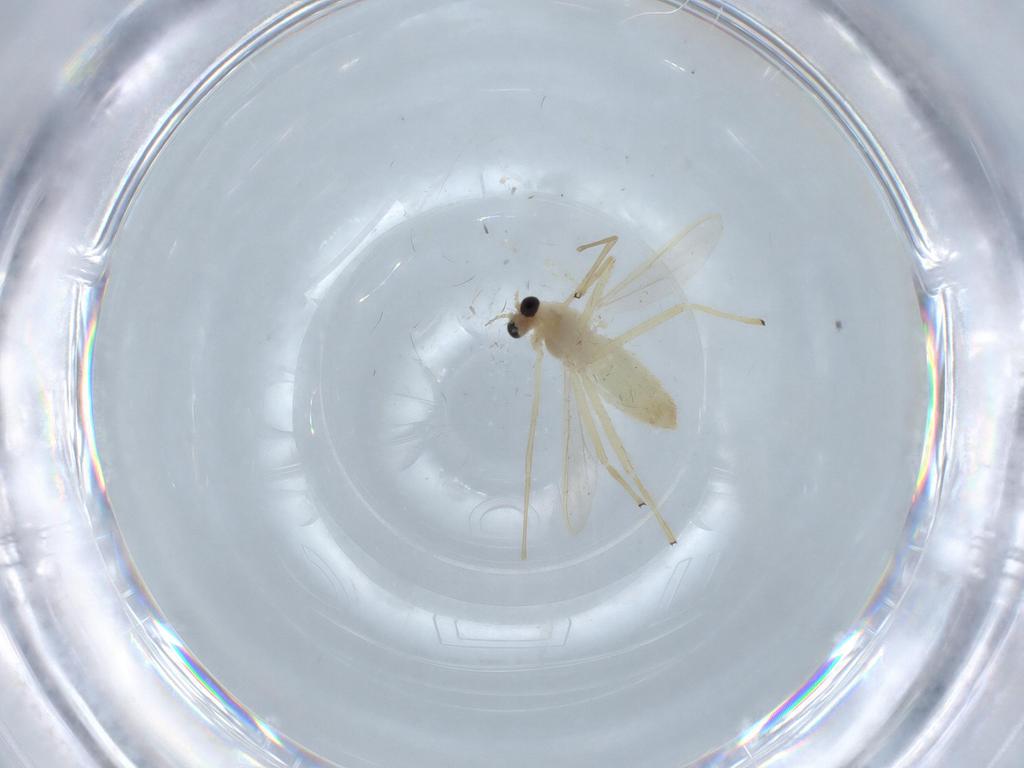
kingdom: Animalia
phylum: Arthropoda
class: Insecta
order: Diptera
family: Chironomidae
